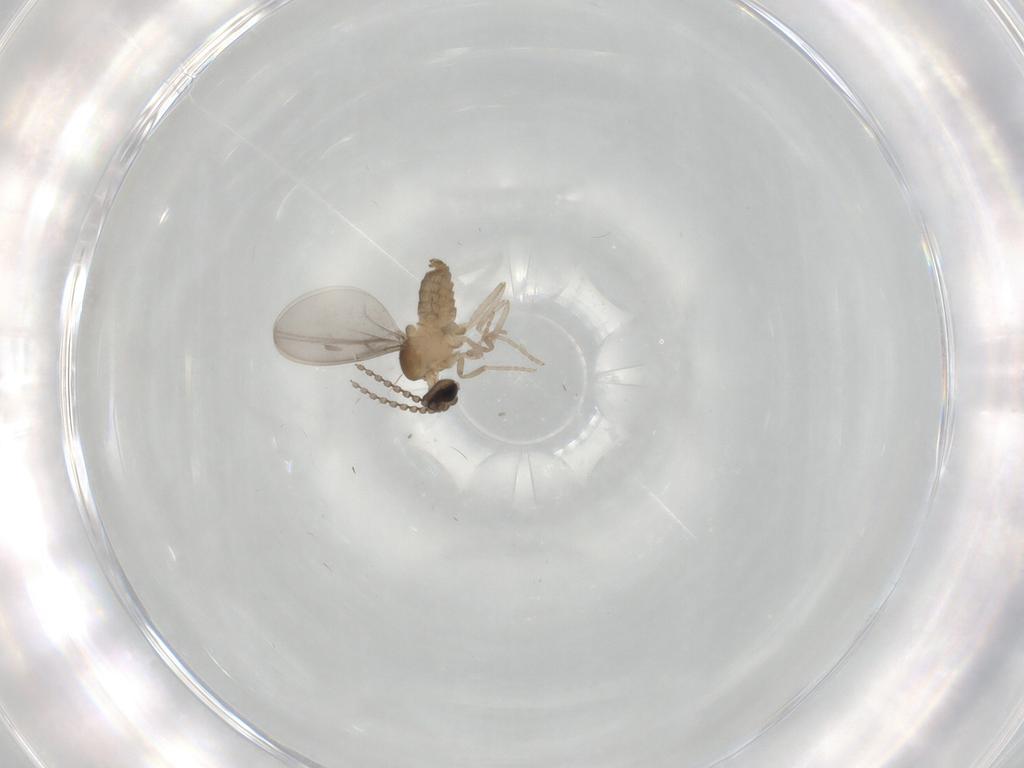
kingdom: Animalia
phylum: Arthropoda
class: Insecta
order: Diptera
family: Cecidomyiidae
